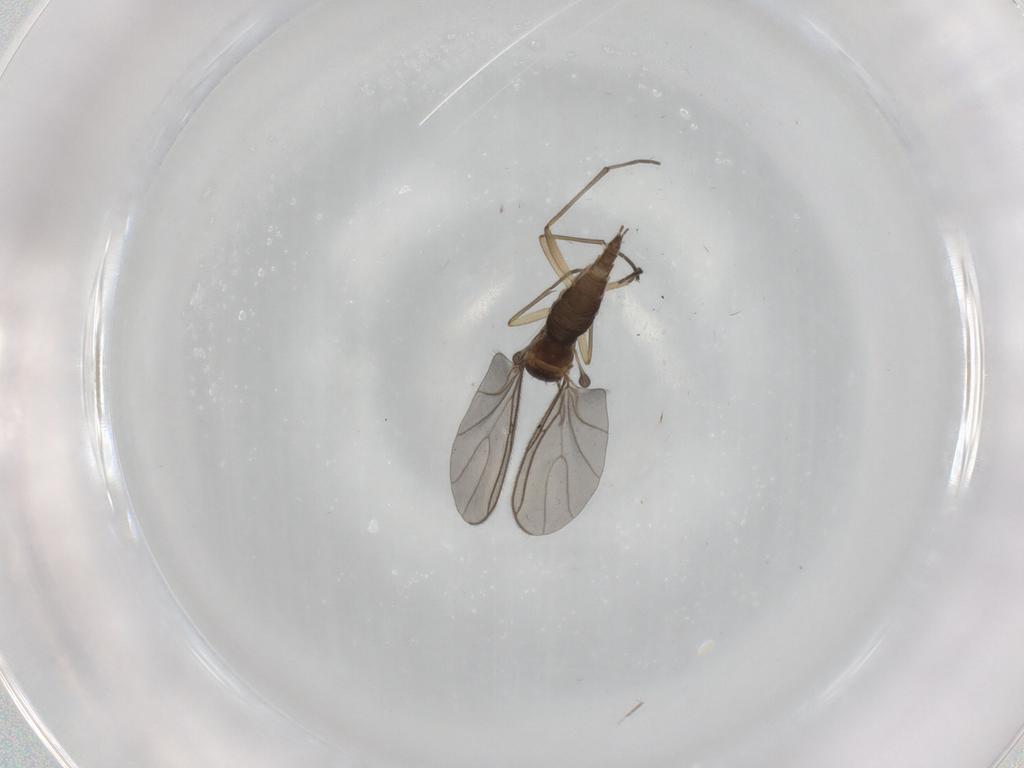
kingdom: Animalia
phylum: Arthropoda
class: Insecta
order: Diptera
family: Sciaridae
